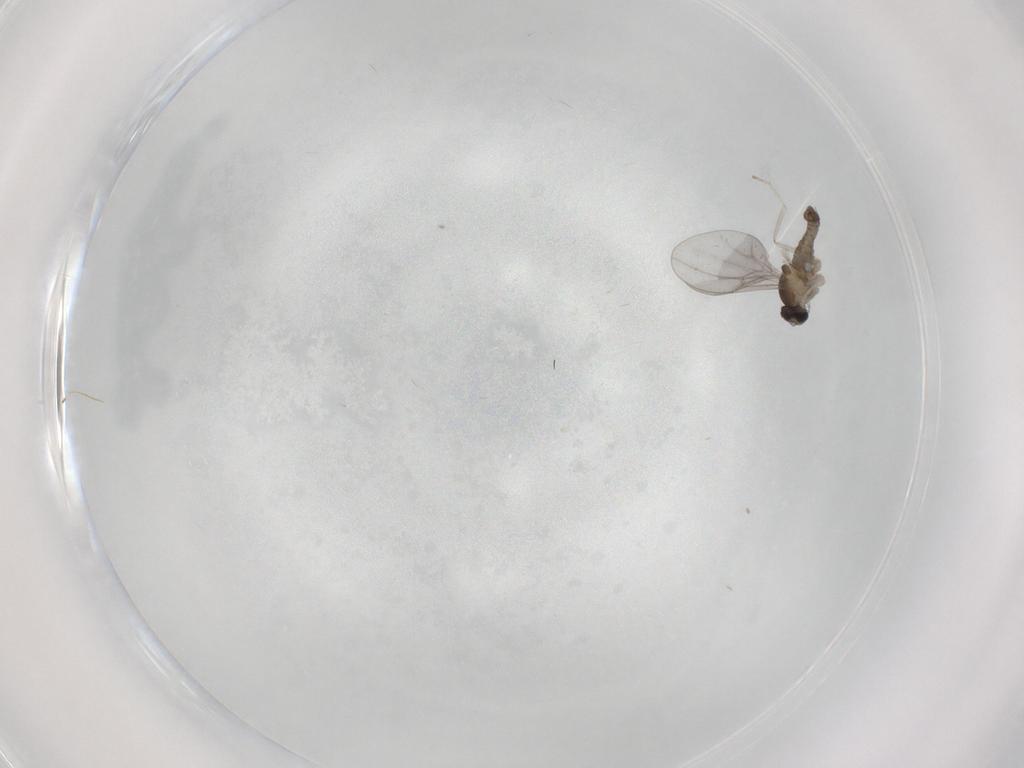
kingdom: Animalia
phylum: Arthropoda
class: Insecta
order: Diptera
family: Cecidomyiidae
